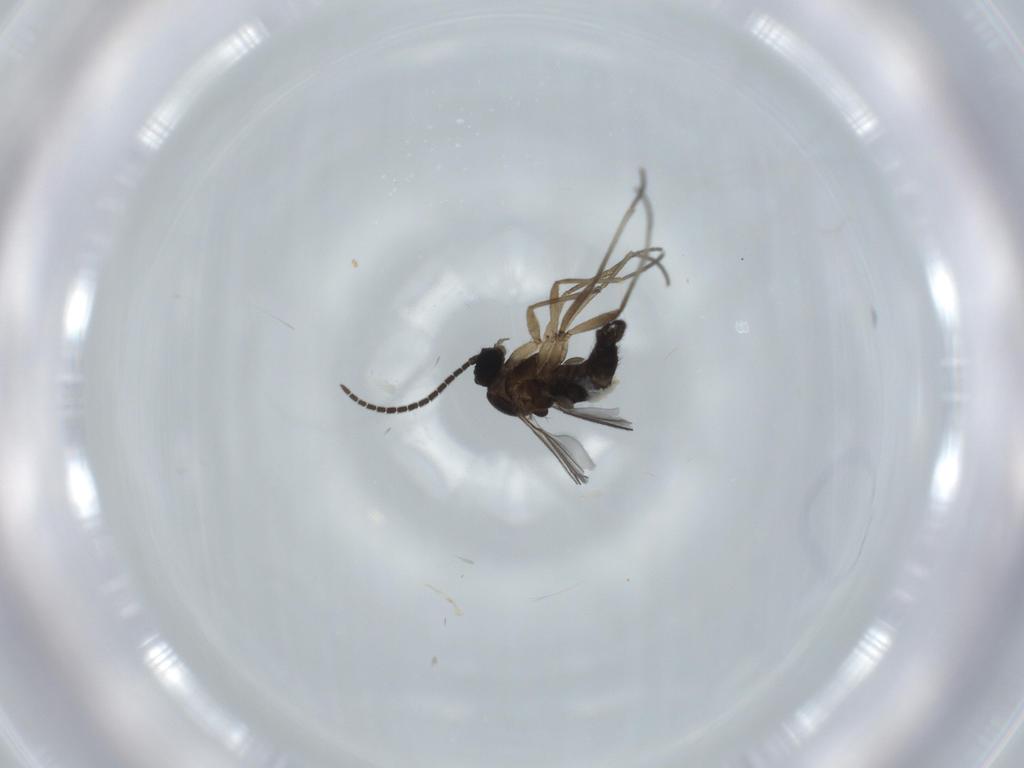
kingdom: Animalia
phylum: Arthropoda
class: Insecta
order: Diptera
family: Sciaridae
